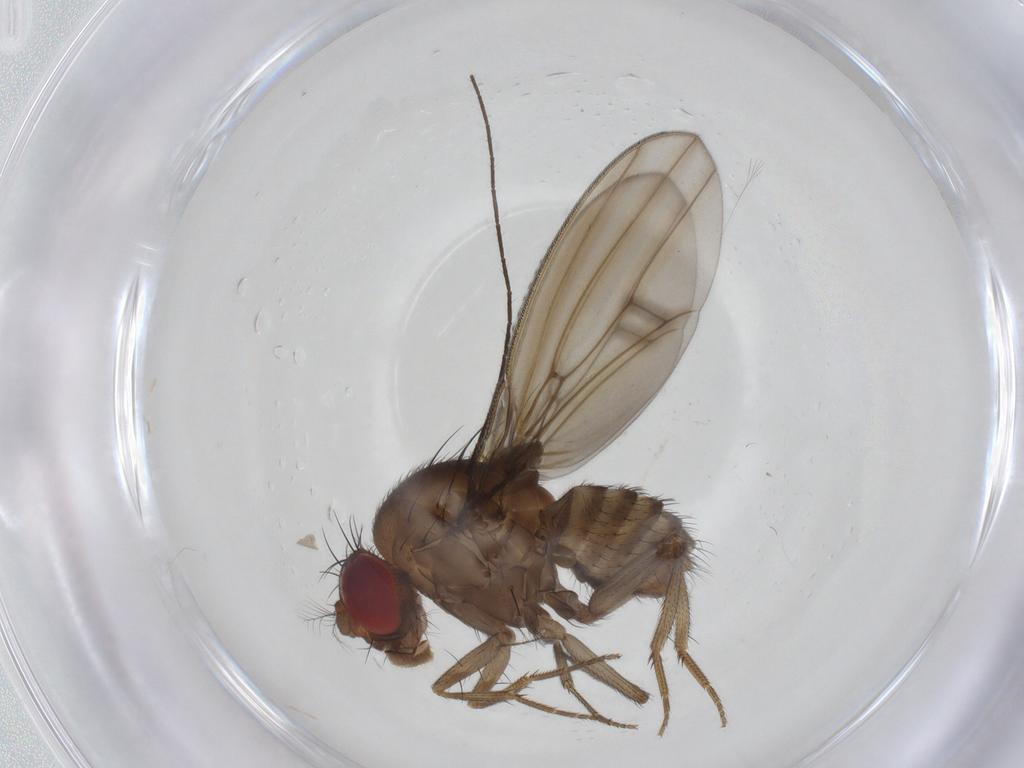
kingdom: Animalia
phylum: Arthropoda
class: Insecta
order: Diptera
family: Drosophilidae
